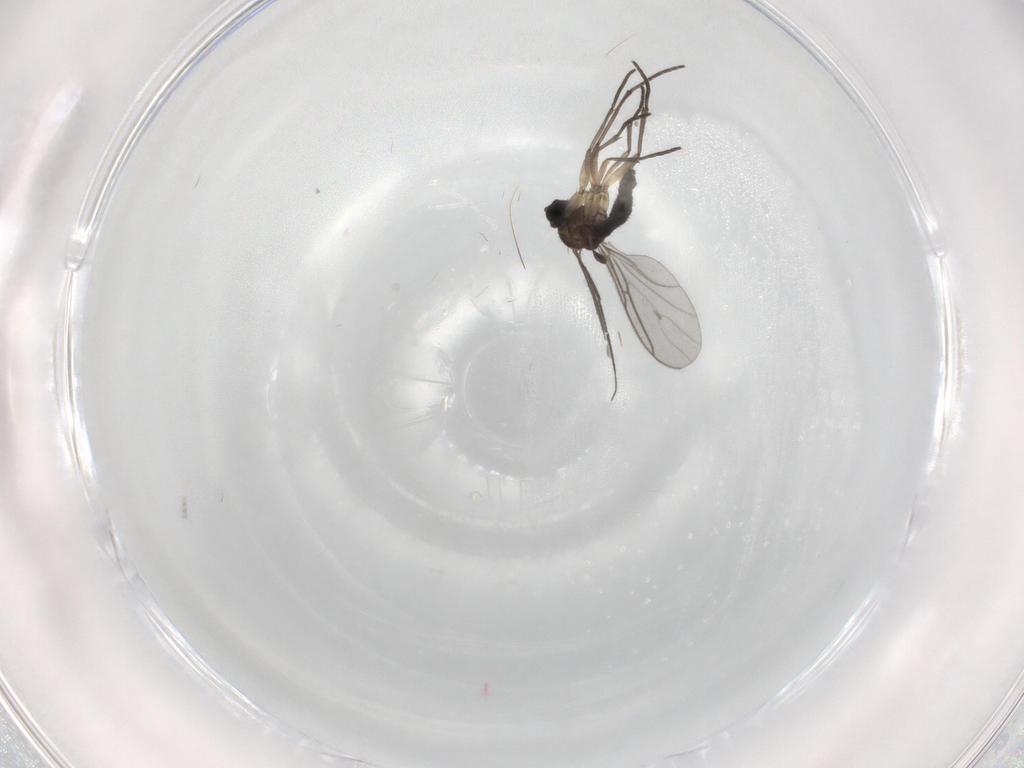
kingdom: Animalia
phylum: Arthropoda
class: Insecta
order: Diptera
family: Sciaridae
